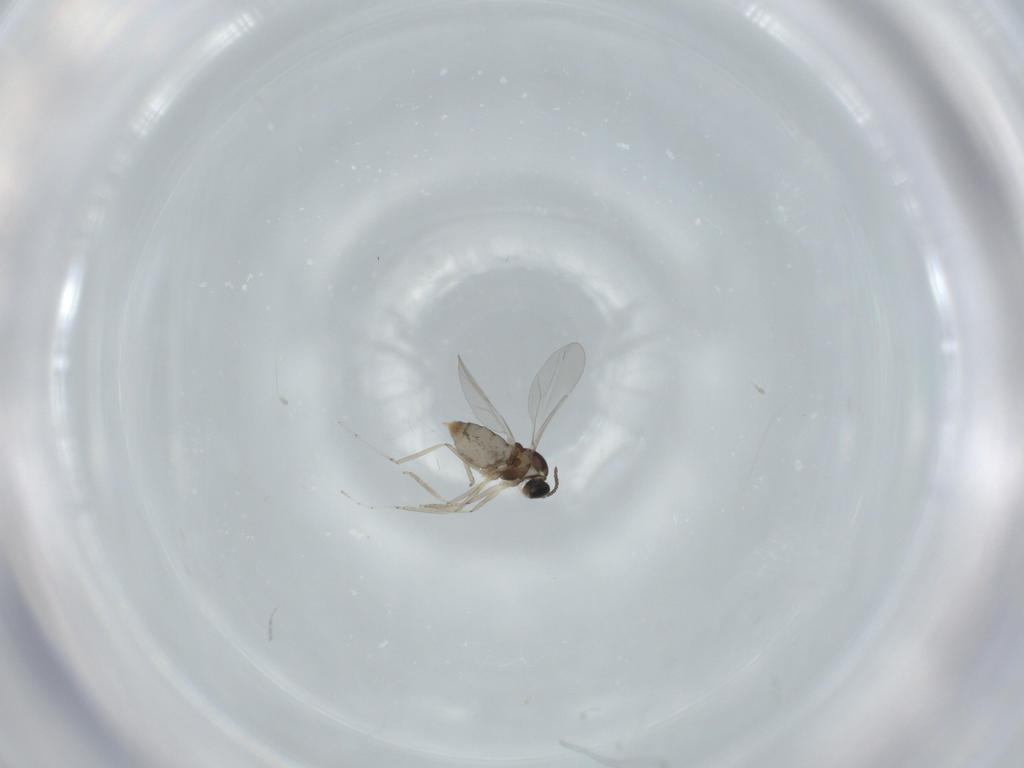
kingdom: Animalia
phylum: Arthropoda
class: Insecta
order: Diptera
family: Cecidomyiidae
